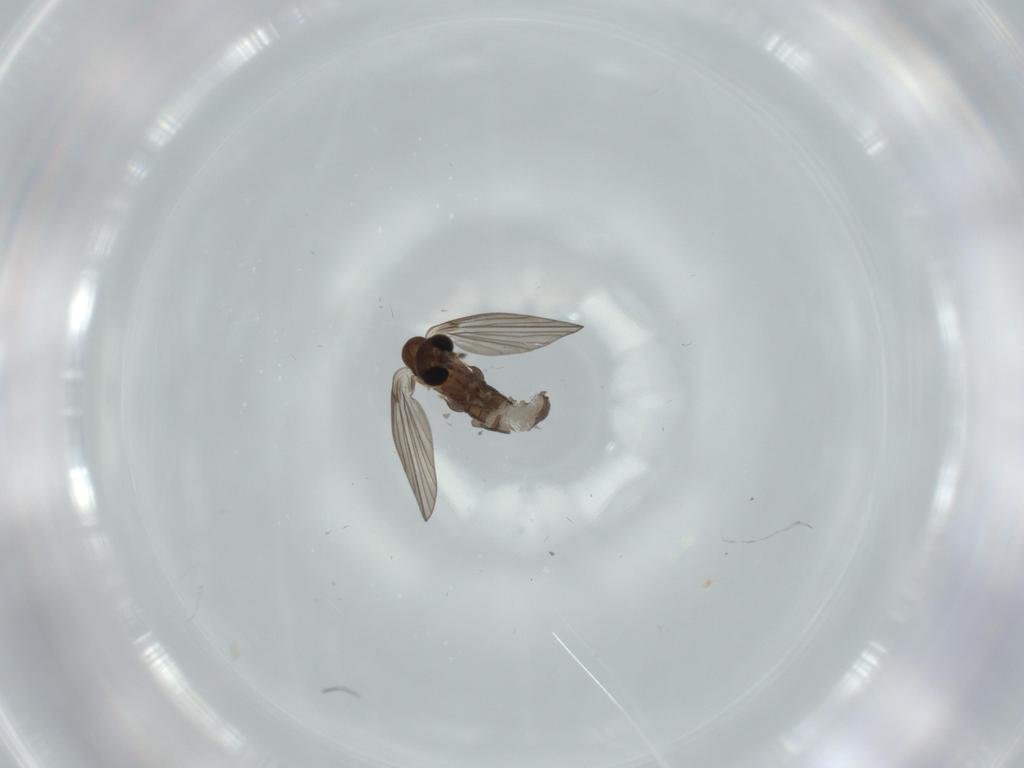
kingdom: Animalia
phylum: Arthropoda
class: Insecta
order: Diptera
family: Psychodidae
